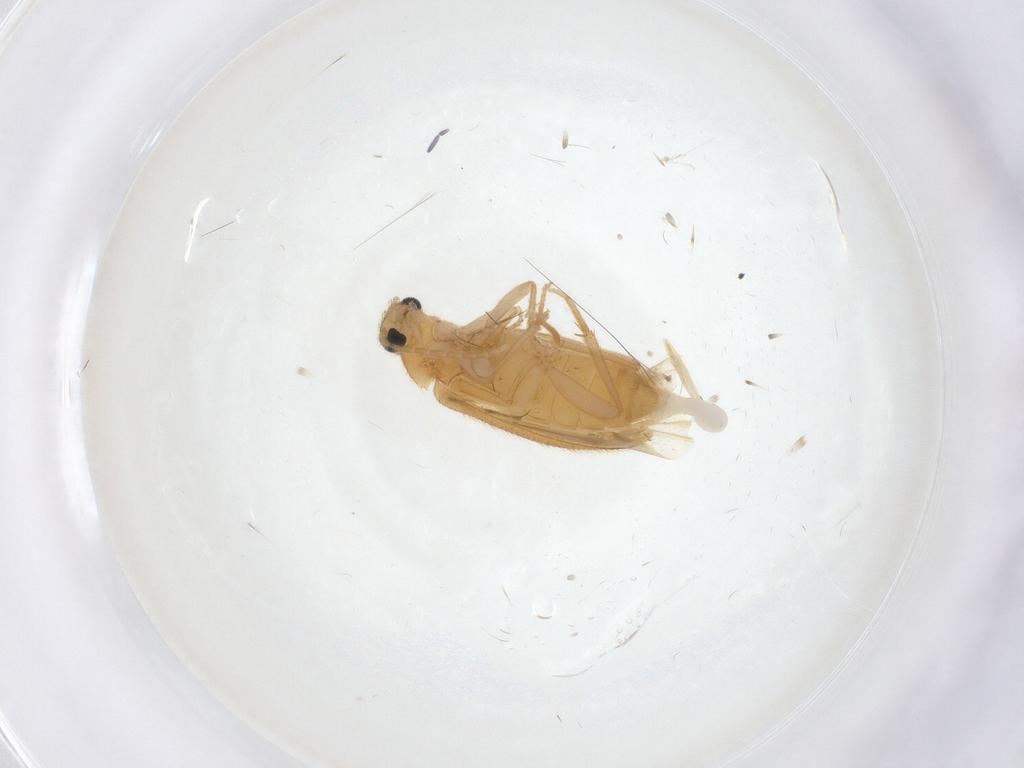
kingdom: Animalia
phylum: Arthropoda
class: Insecta
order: Coleoptera
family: Scraptiidae
